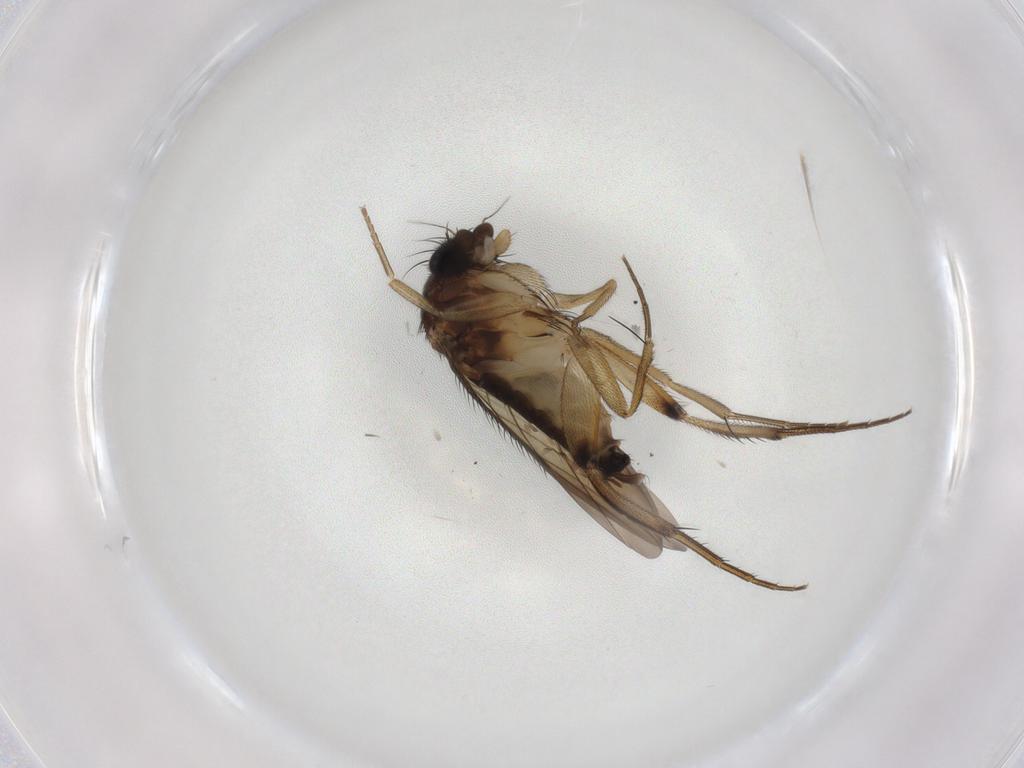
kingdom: Animalia
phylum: Arthropoda
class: Insecta
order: Diptera
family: Phoridae
